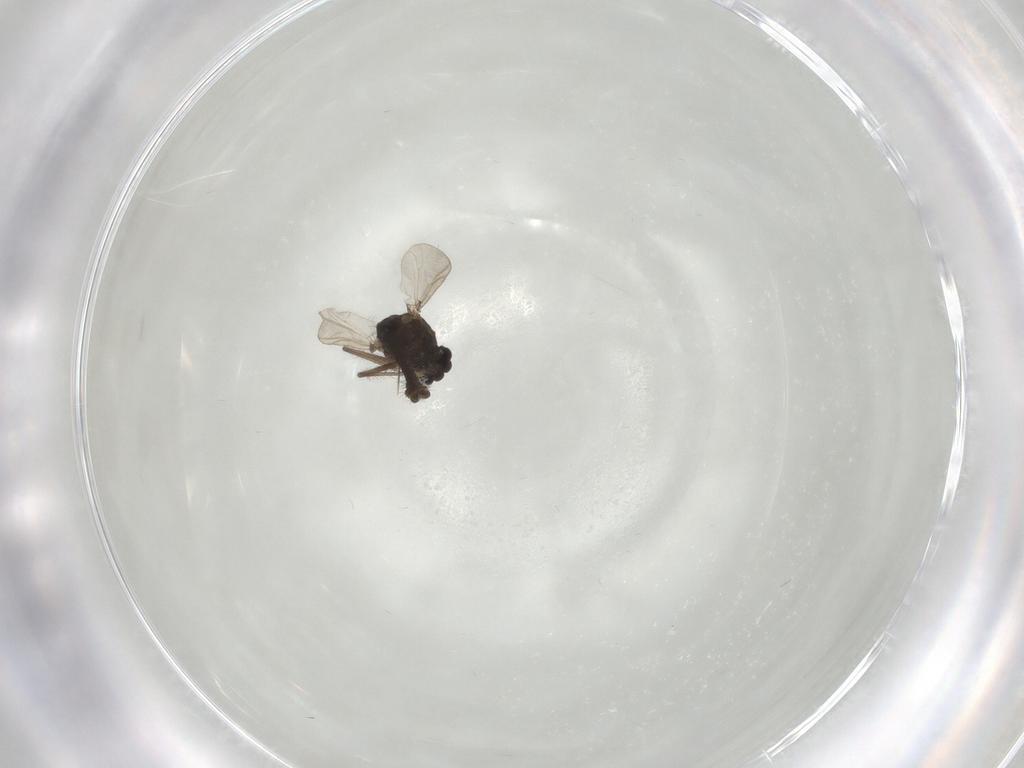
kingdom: Animalia
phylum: Arthropoda
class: Insecta
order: Diptera
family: Chironomidae
